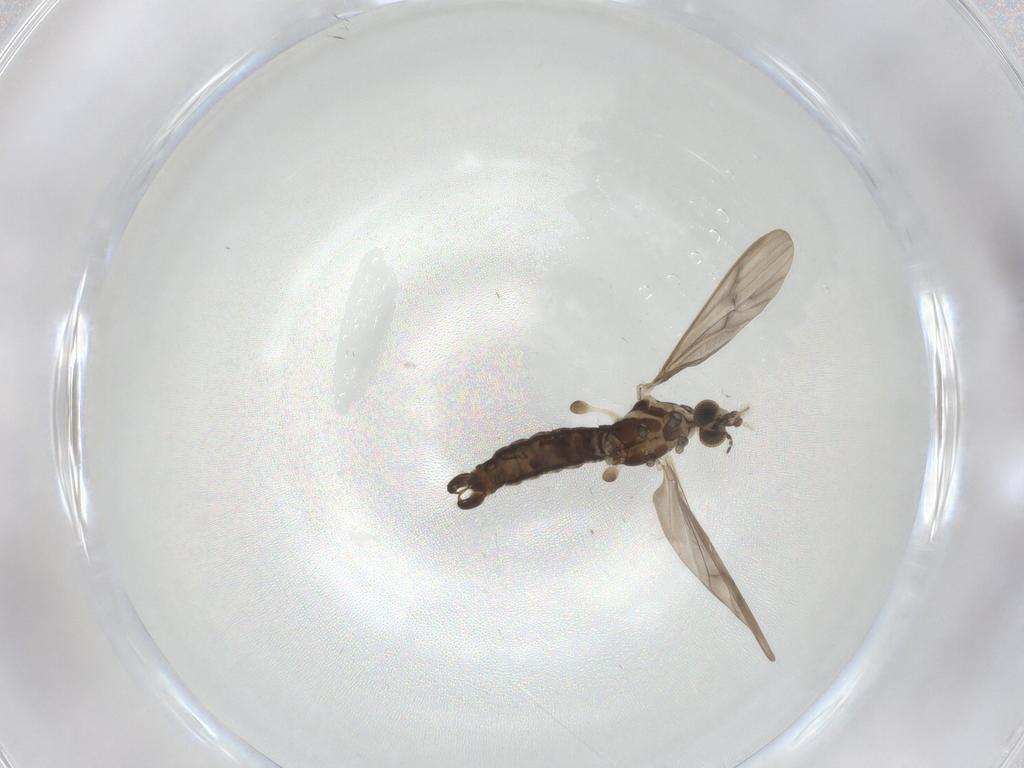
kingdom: Animalia
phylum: Arthropoda
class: Insecta
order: Diptera
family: Limoniidae
